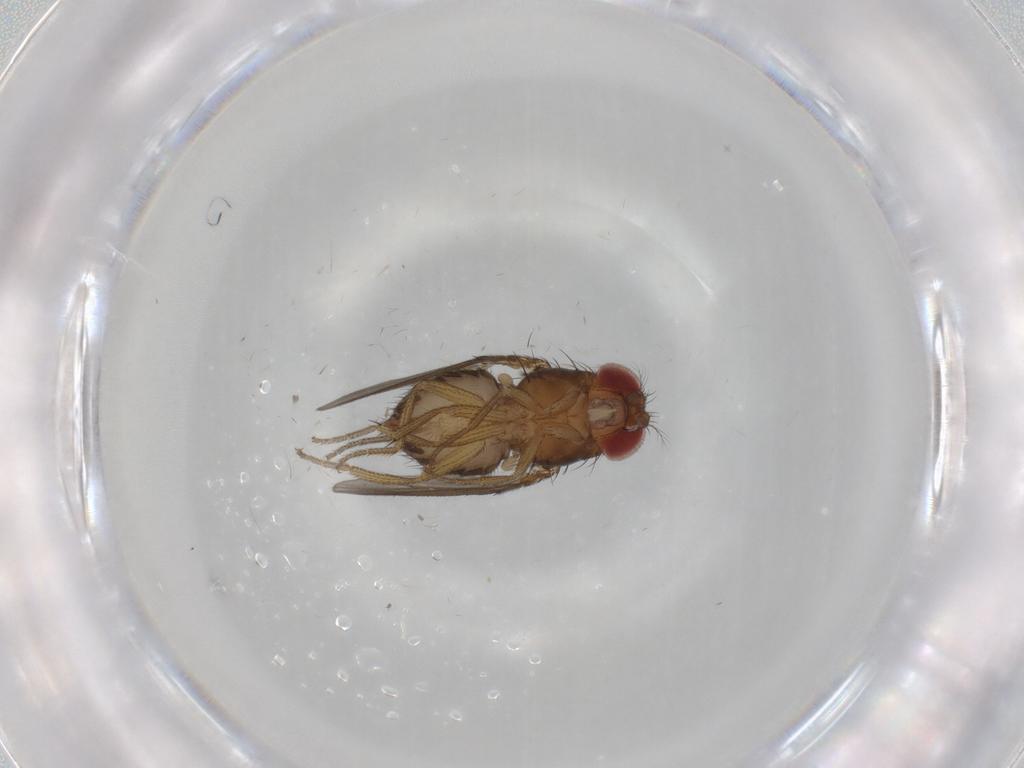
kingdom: Animalia
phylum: Arthropoda
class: Insecta
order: Diptera
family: Drosophilidae
